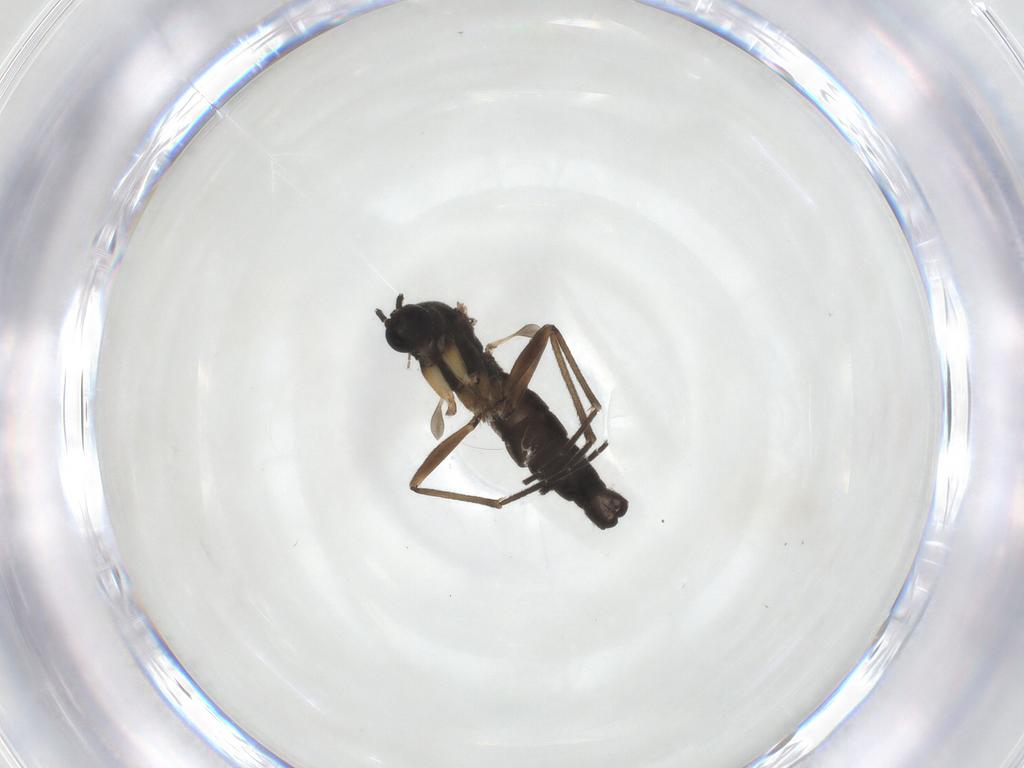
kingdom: Animalia
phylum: Arthropoda
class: Insecta
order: Diptera
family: Sciaridae
